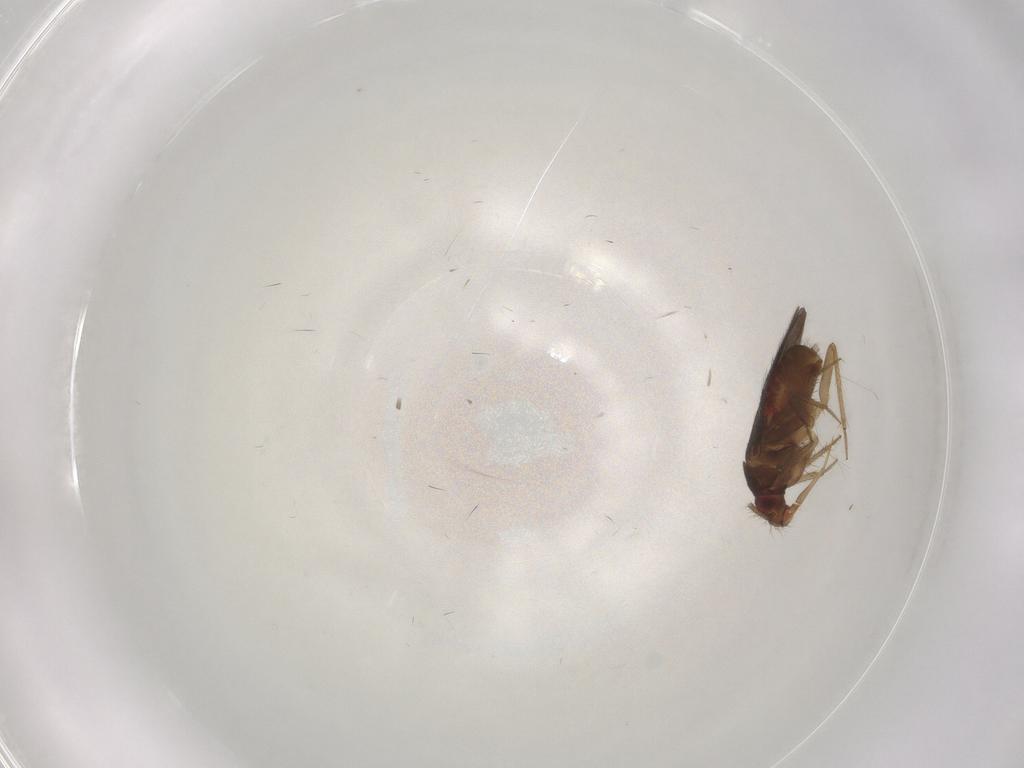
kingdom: Animalia
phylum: Arthropoda
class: Insecta
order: Hemiptera
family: Ceratocombidae
